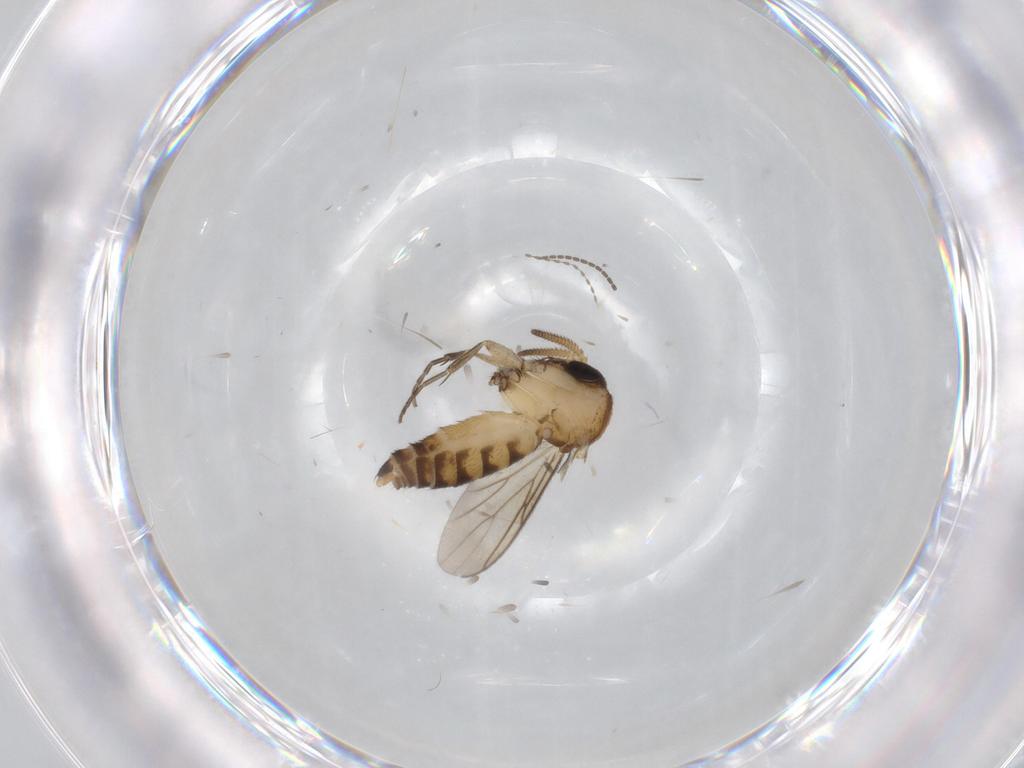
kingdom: Animalia
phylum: Arthropoda
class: Insecta
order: Diptera
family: Mycetophilidae
